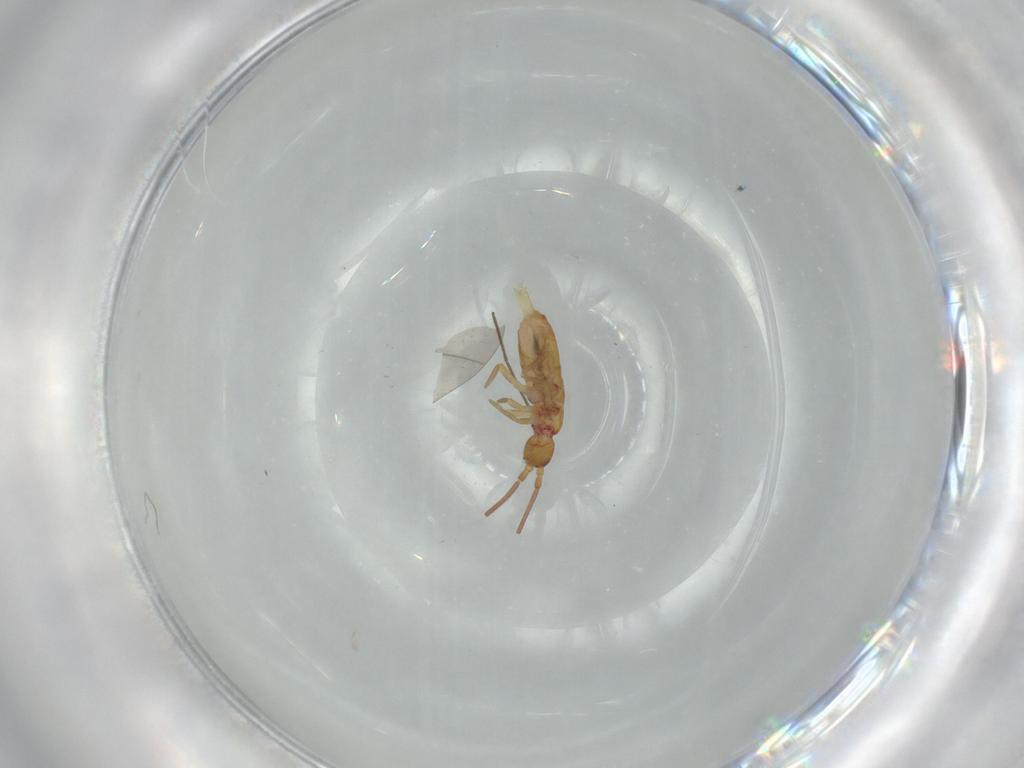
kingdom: Animalia
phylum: Arthropoda
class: Collembola
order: Entomobryomorpha
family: Tomoceridae
